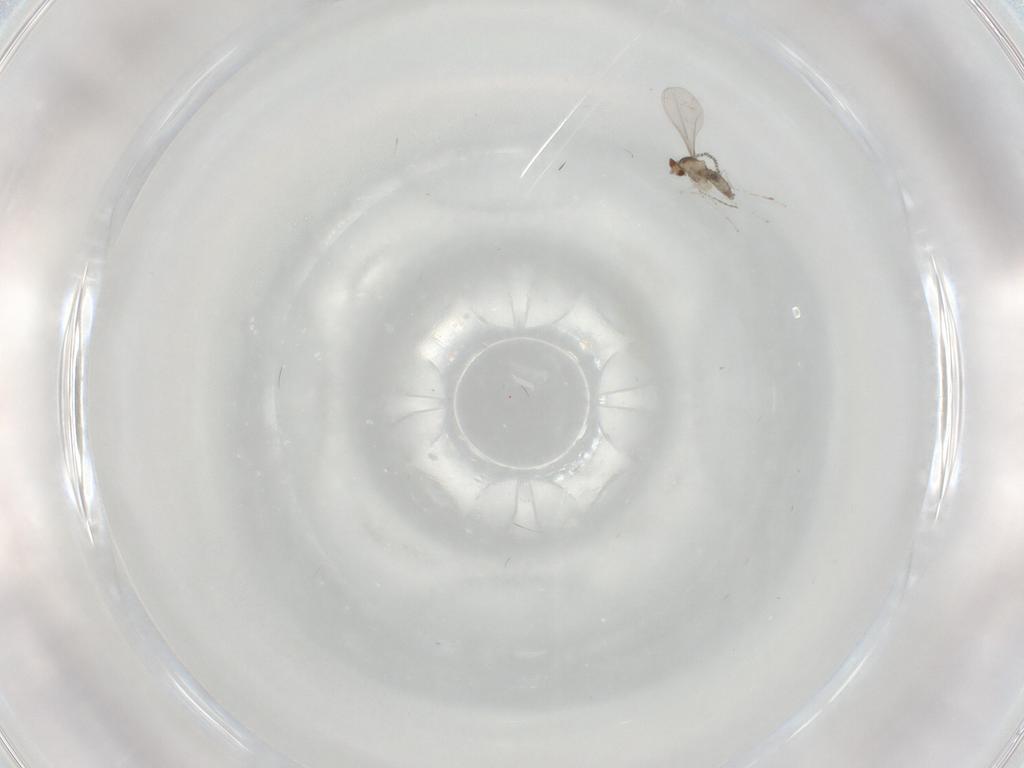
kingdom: Animalia
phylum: Arthropoda
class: Insecta
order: Diptera
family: Cecidomyiidae
